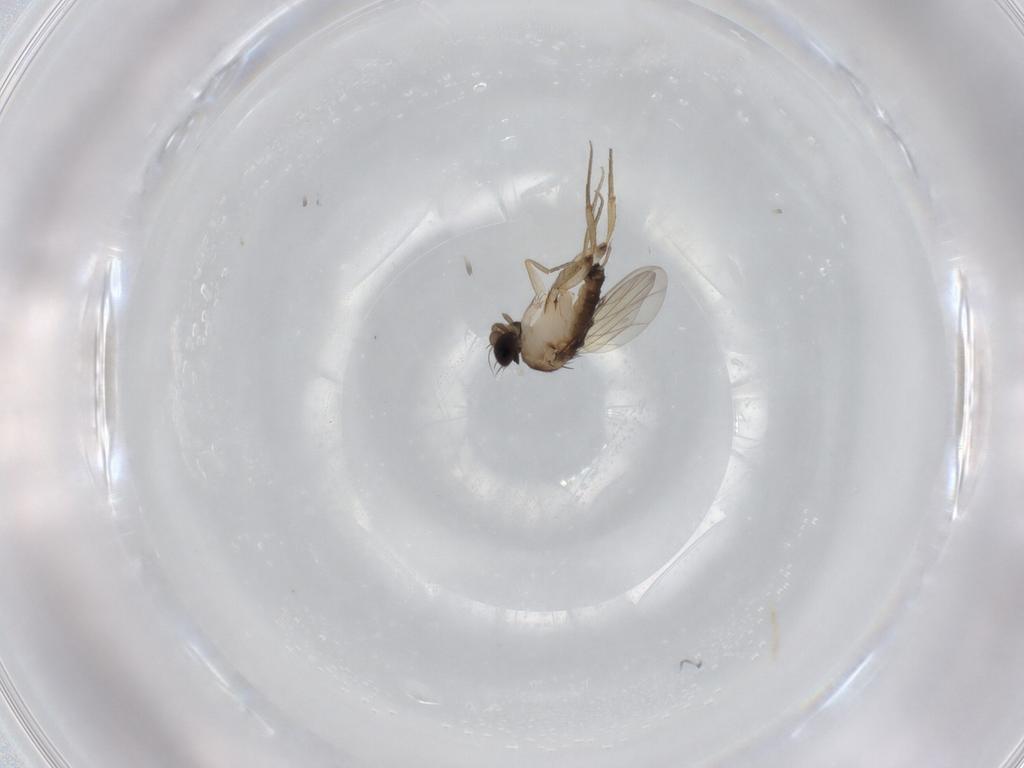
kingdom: Animalia
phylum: Arthropoda
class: Insecta
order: Diptera
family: Phoridae
